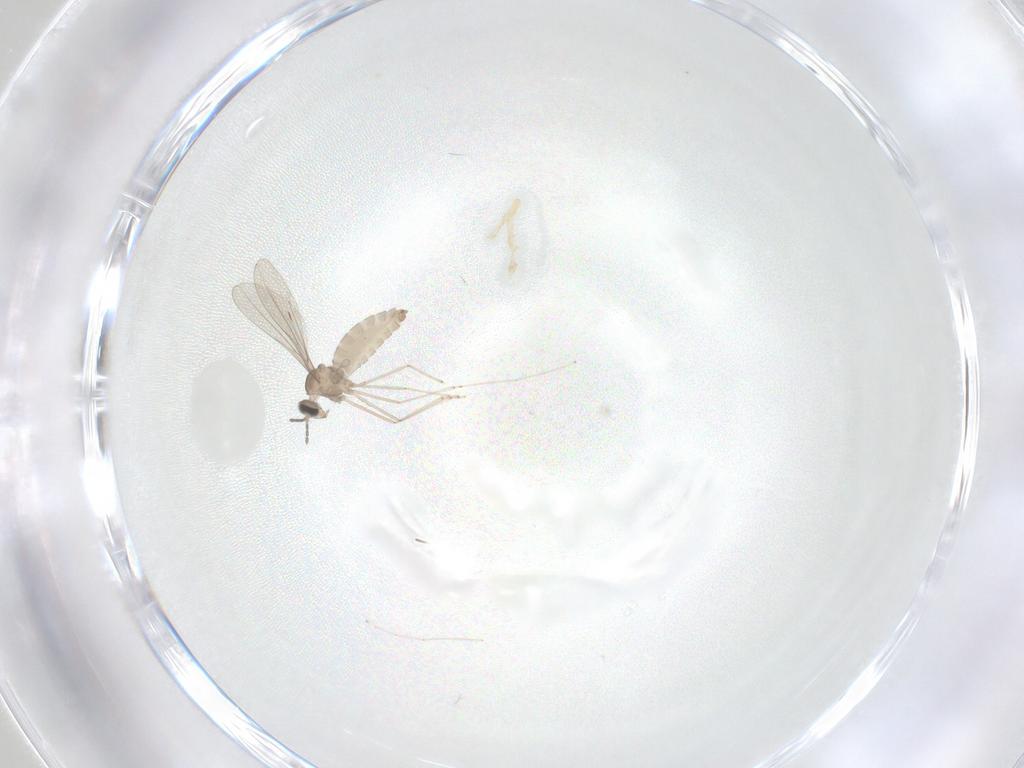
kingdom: Animalia
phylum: Arthropoda
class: Insecta
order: Diptera
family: Cecidomyiidae
